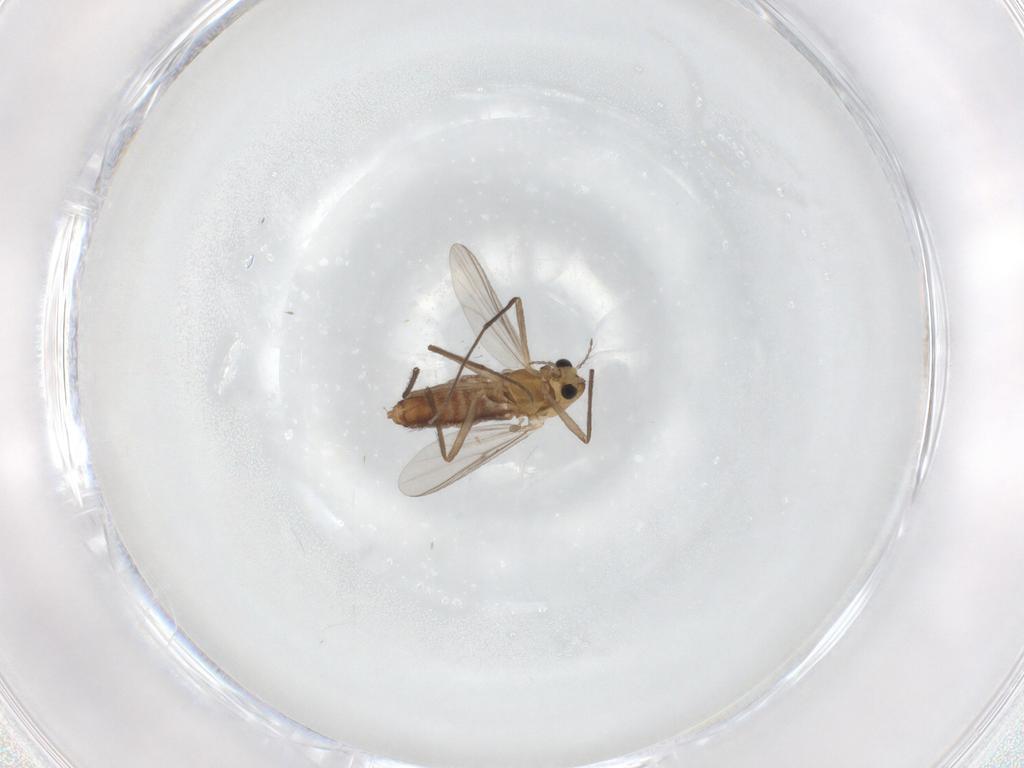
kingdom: Animalia
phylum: Arthropoda
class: Insecta
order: Diptera
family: Chironomidae
